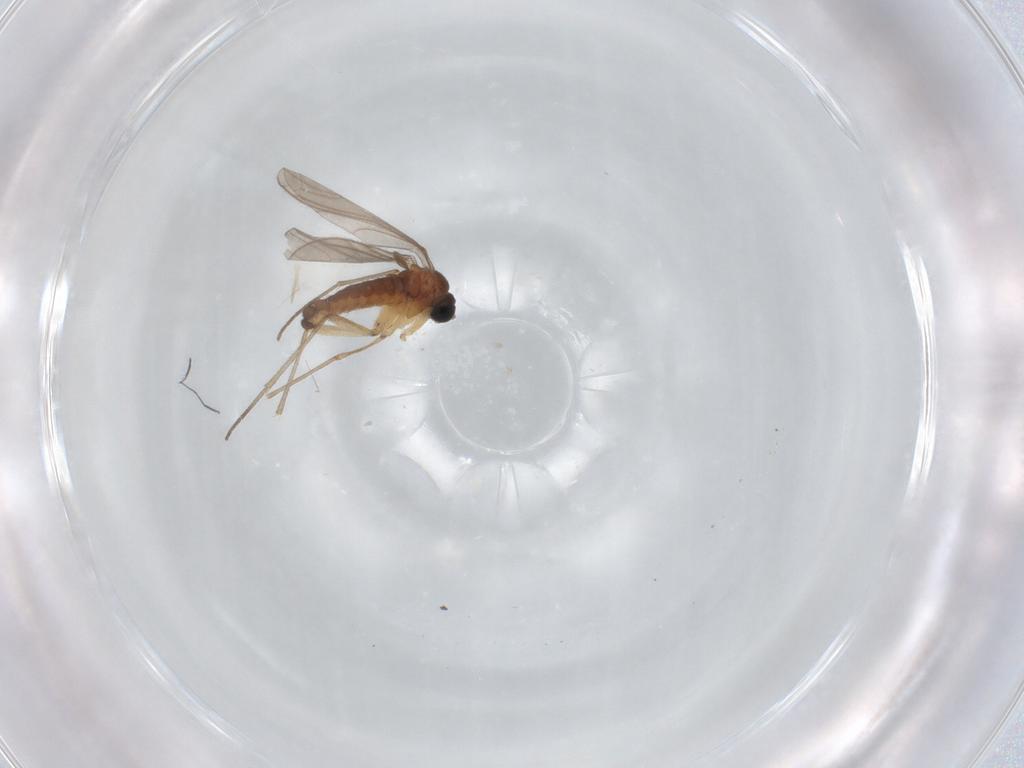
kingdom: Animalia
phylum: Arthropoda
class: Insecta
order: Diptera
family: Sciaridae
